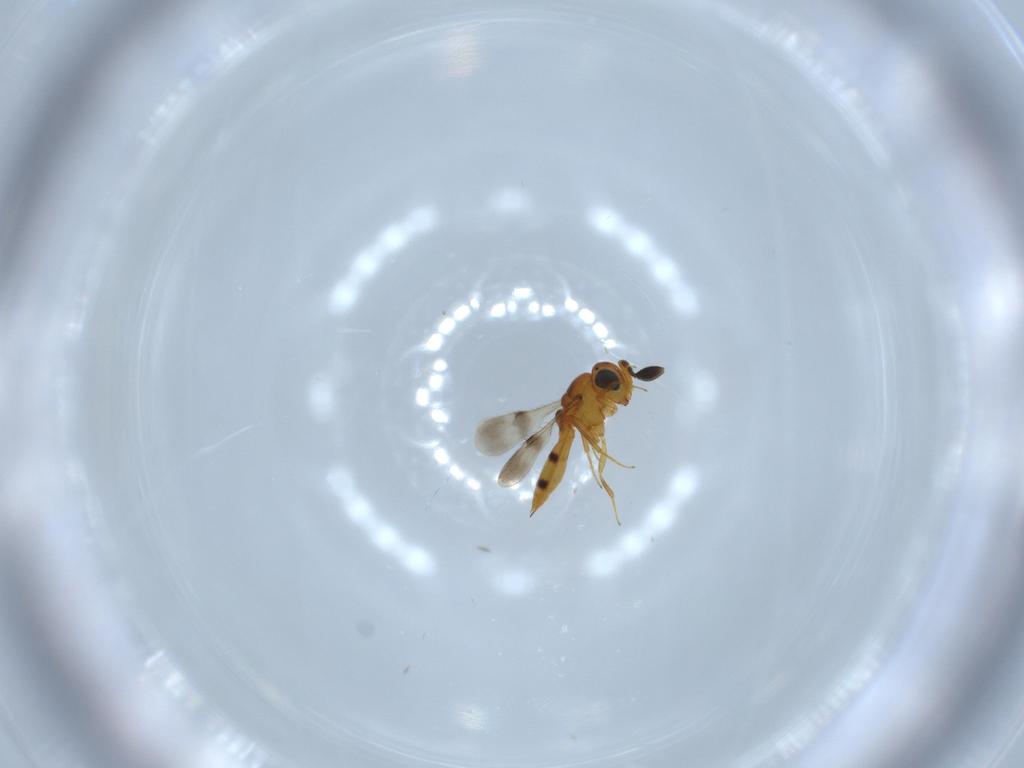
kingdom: Animalia
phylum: Arthropoda
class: Insecta
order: Hymenoptera
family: Scelionidae
